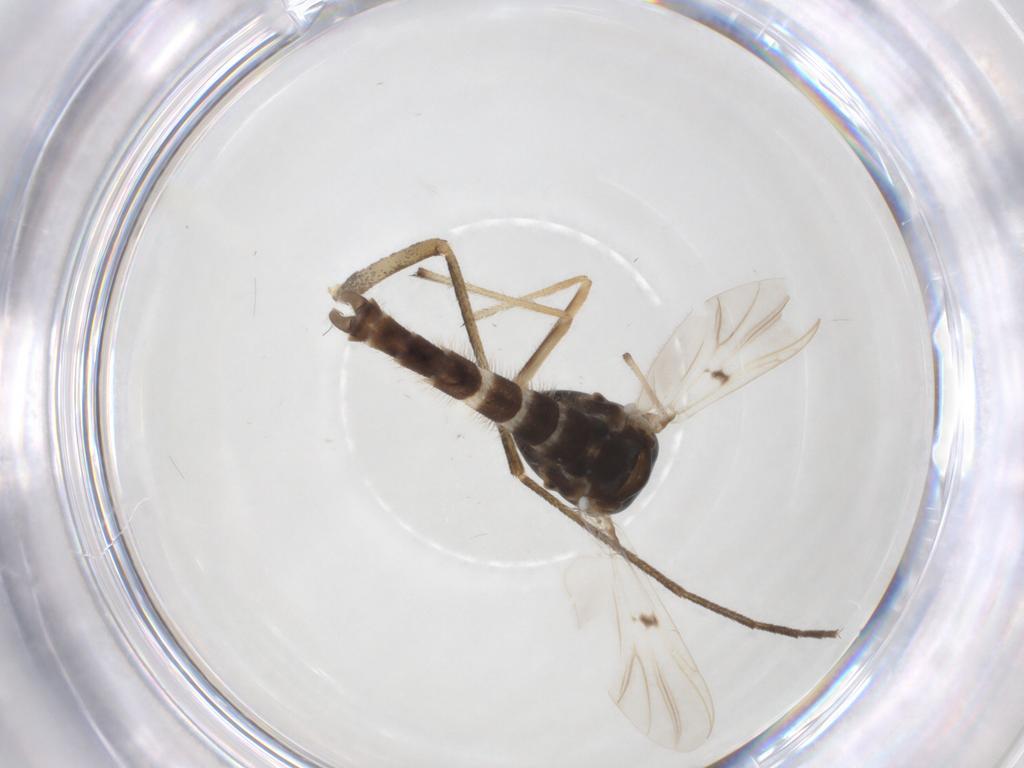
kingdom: Animalia
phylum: Arthropoda
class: Insecta
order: Diptera
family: Chironomidae
